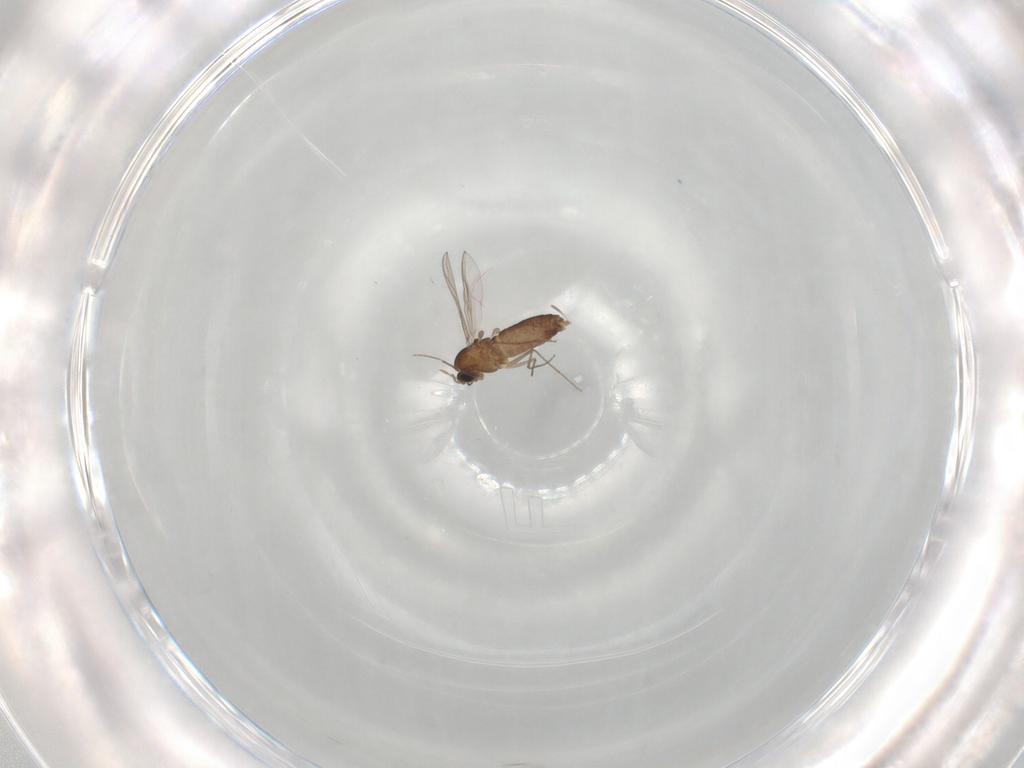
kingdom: Animalia
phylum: Arthropoda
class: Insecta
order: Diptera
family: Chironomidae
